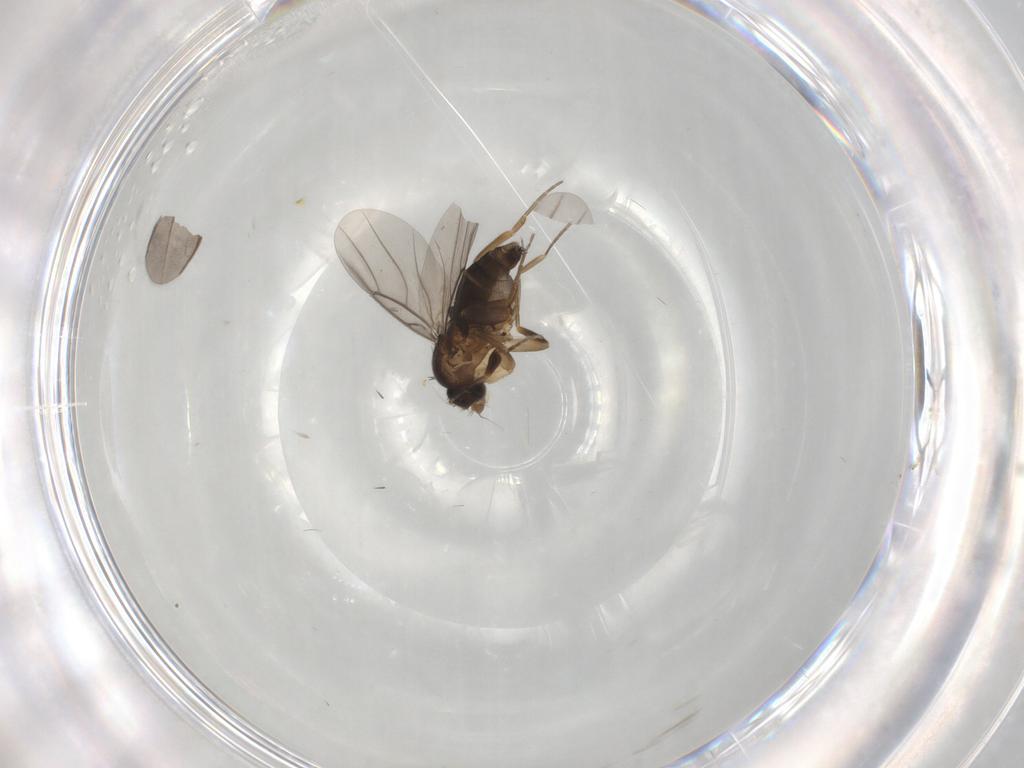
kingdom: Animalia
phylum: Arthropoda
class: Insecta
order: Diptera
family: Phoridae
